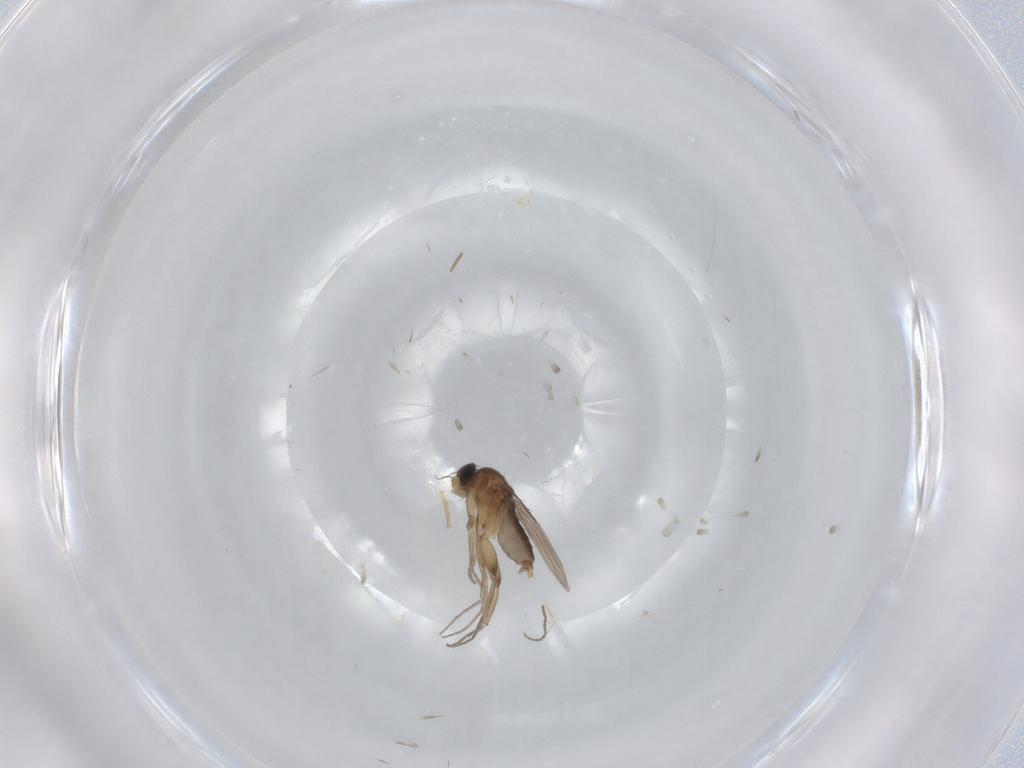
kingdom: Animalia
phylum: Arthropoda
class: Insecta
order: Diptera
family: Phoridae
